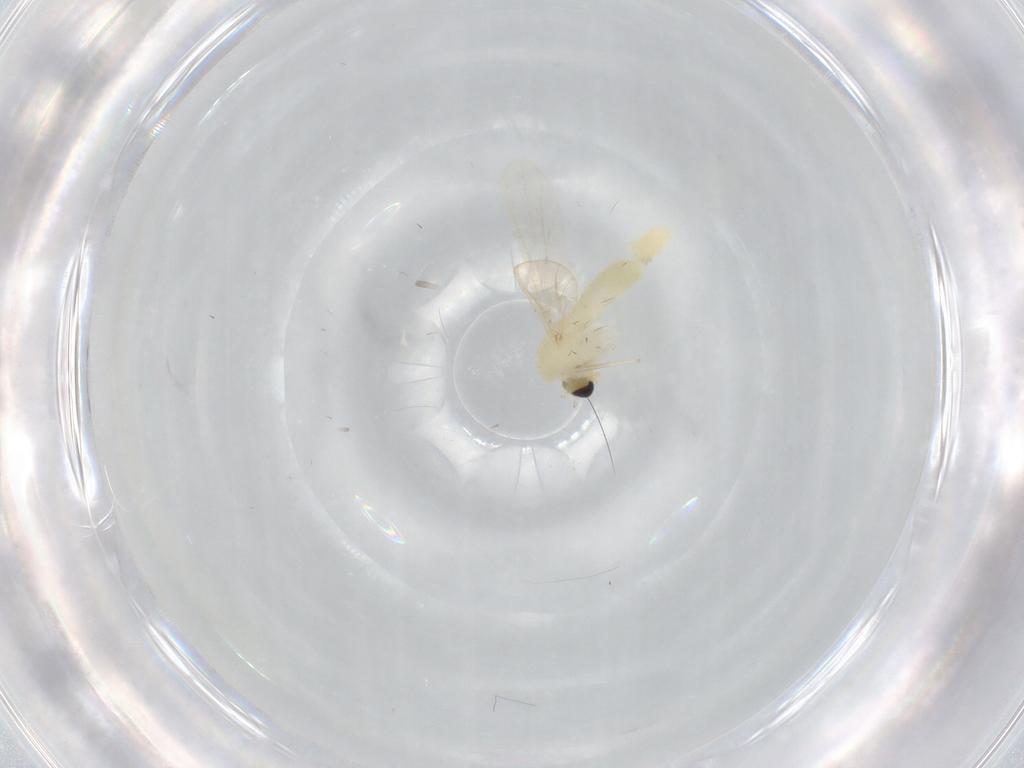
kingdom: Animalia
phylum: Arthropoda
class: Insecta
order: Diptera
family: Chironomidae
